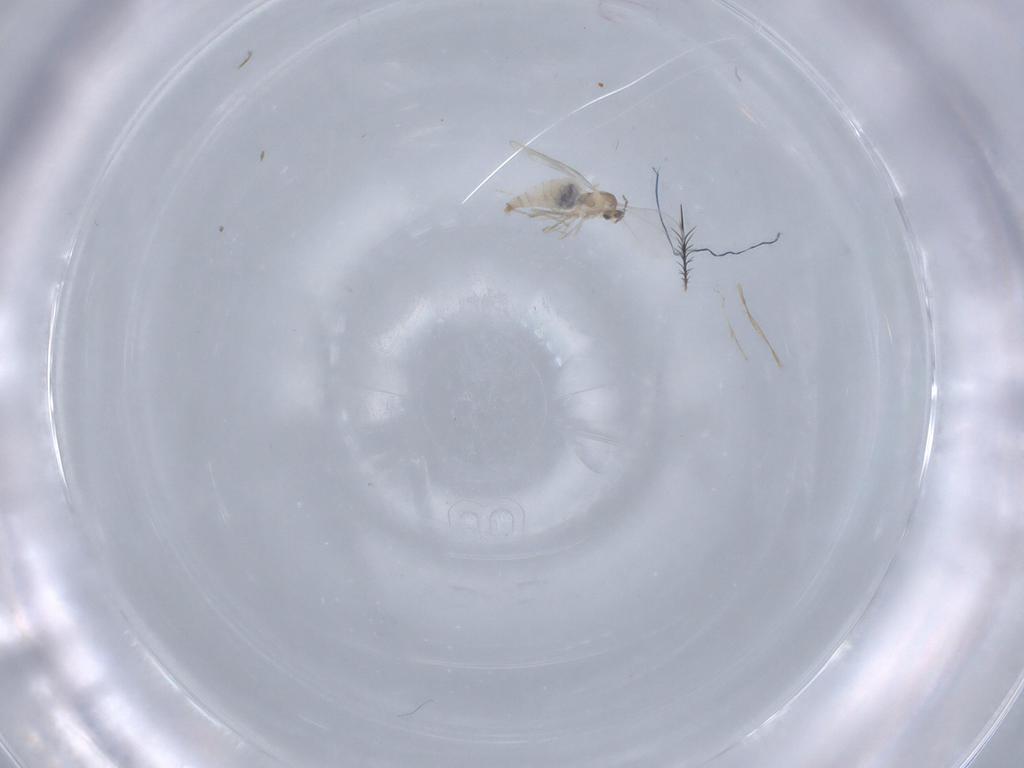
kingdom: Animalia
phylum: Arthropoda
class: Insecta
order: Diptera
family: Cecidomyiidae
